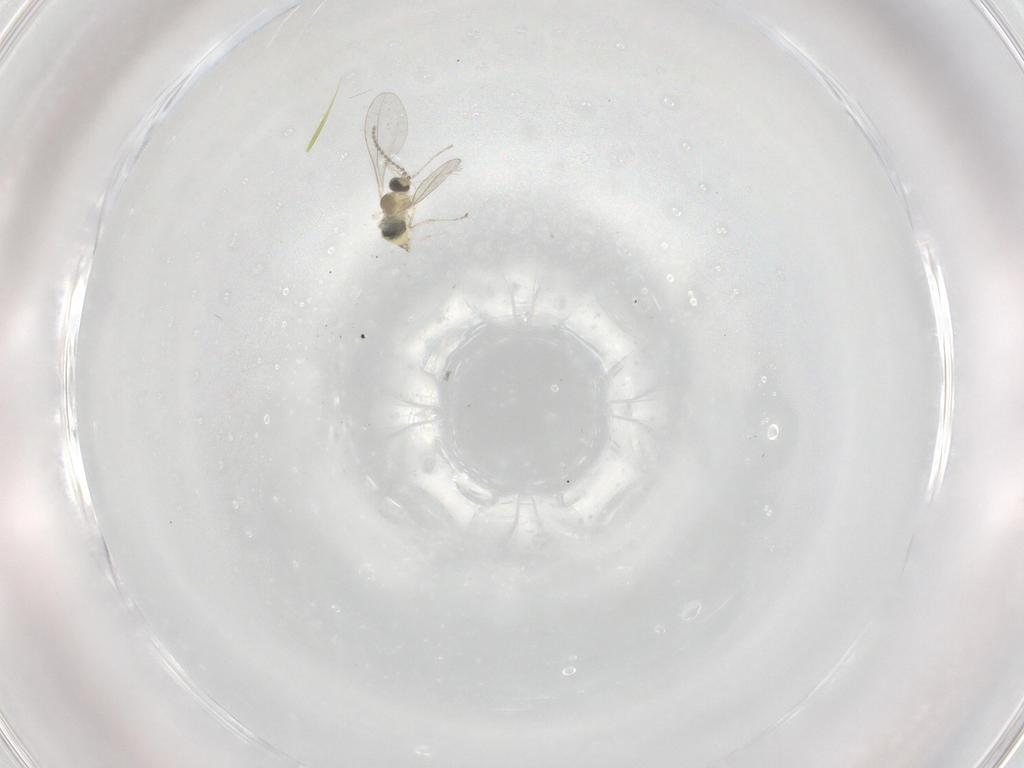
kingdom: Animalia
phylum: Arthropoda
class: Insecta
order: Diptera
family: Cecidomyiidae
